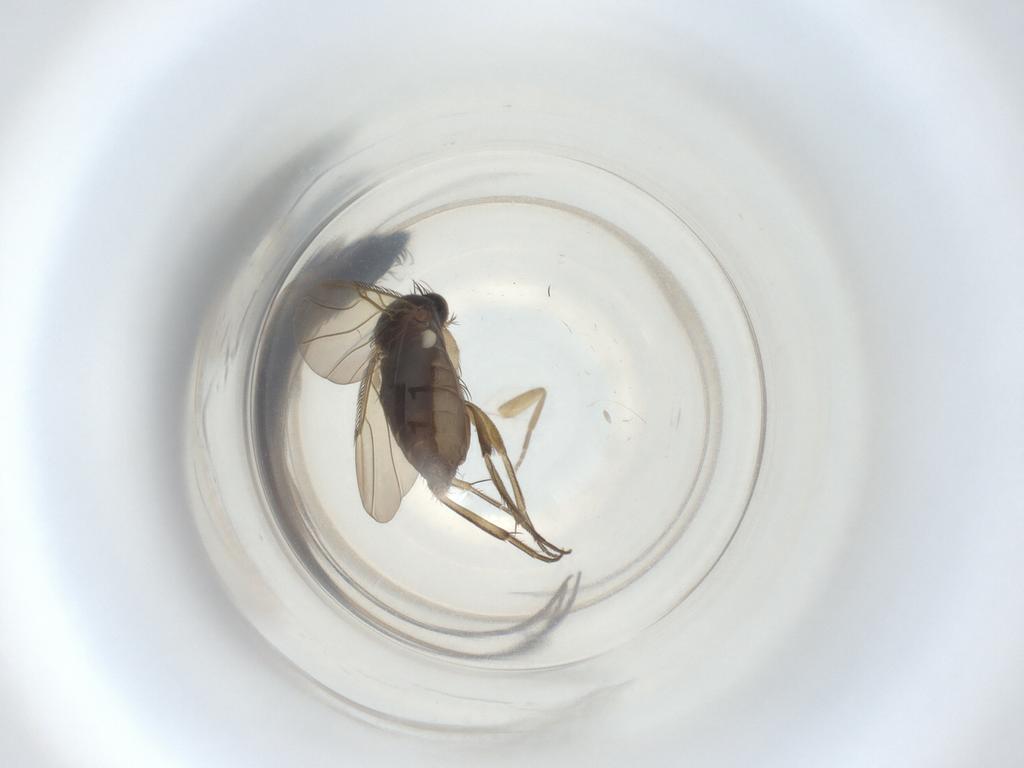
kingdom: Animalia
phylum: Arthropoda
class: Insecta
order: Diptera
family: Phoridae
